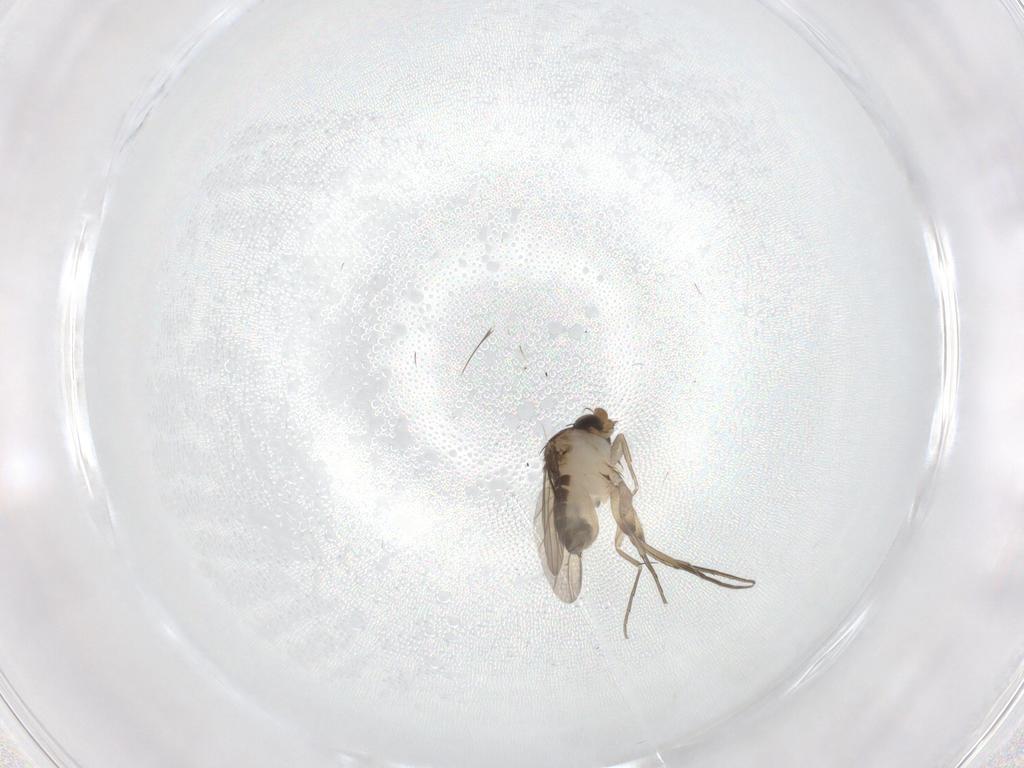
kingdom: Animalia
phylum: Arthropoda
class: Insecta
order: Diptera
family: Phoridae
